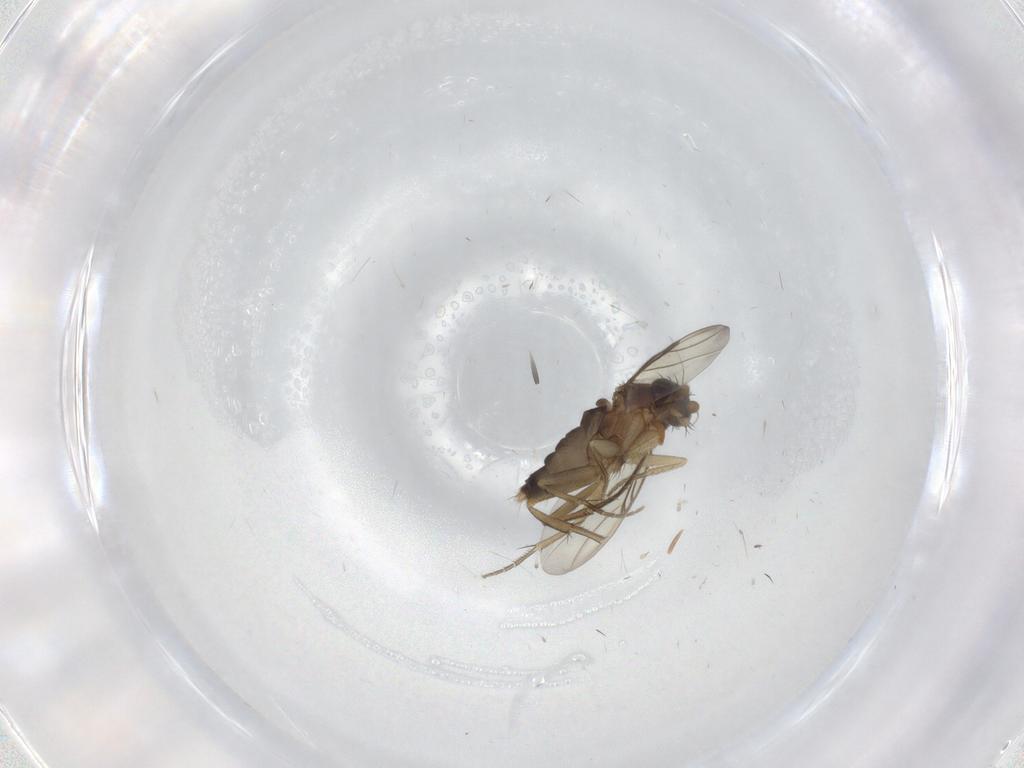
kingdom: Animalia
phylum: Arthropoda
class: Insecta
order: Diptera
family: Phoridae
